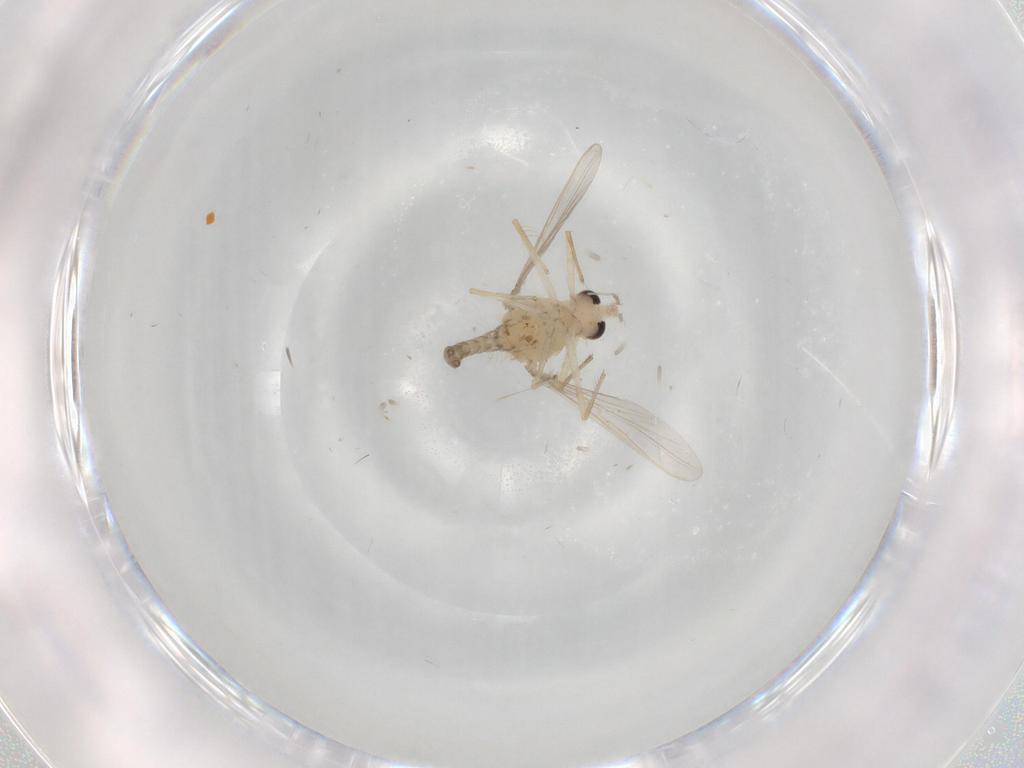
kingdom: Animalia
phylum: Arthropoda
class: Insecta
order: Diptera
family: Chironomidae
